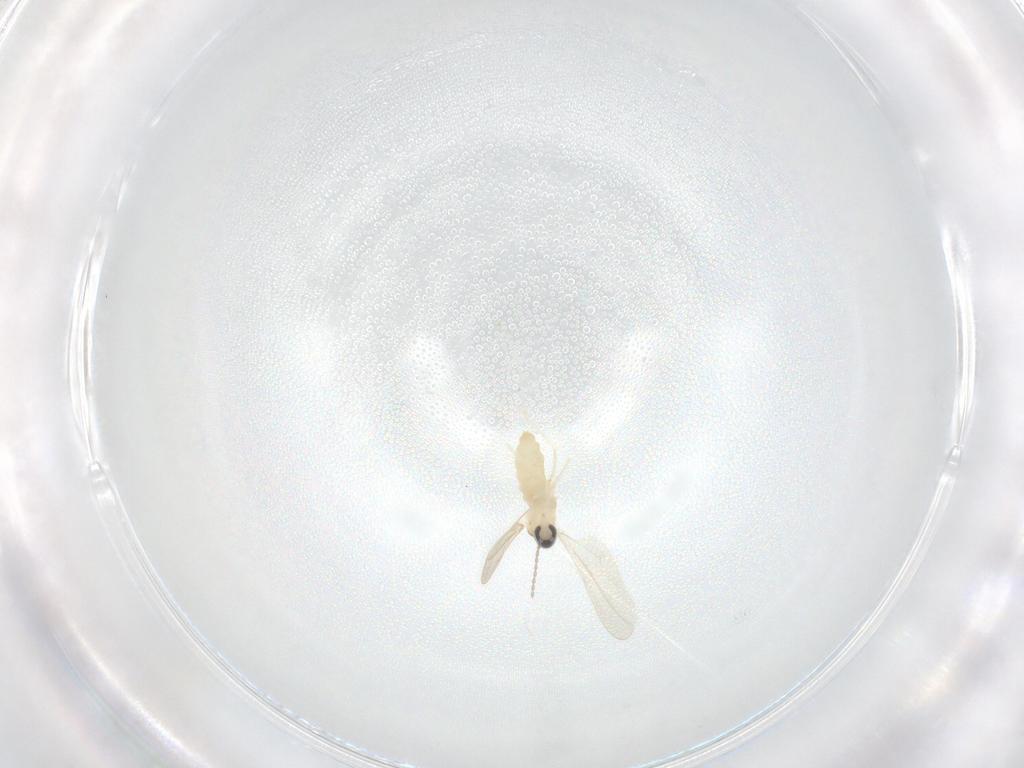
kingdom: Animalia
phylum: Arthropoda
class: Insecta
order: Diptera
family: Cecidomyiidae
